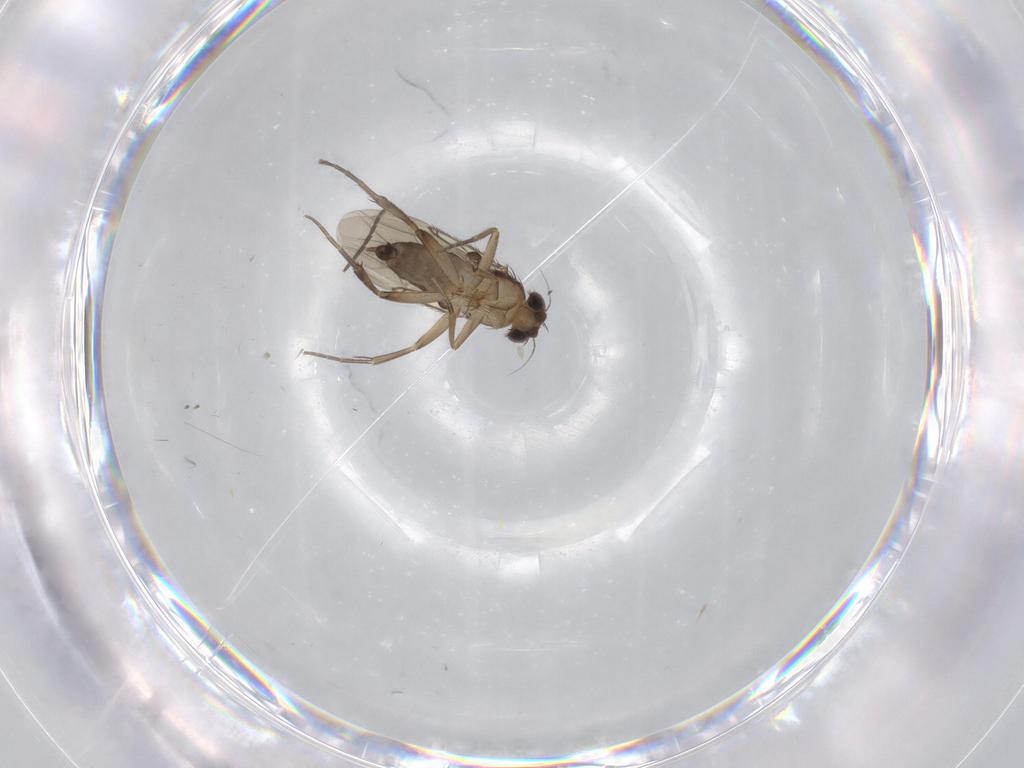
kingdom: Animalia
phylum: Arthropoda
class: Insecta
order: Diptera
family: Phoridae
